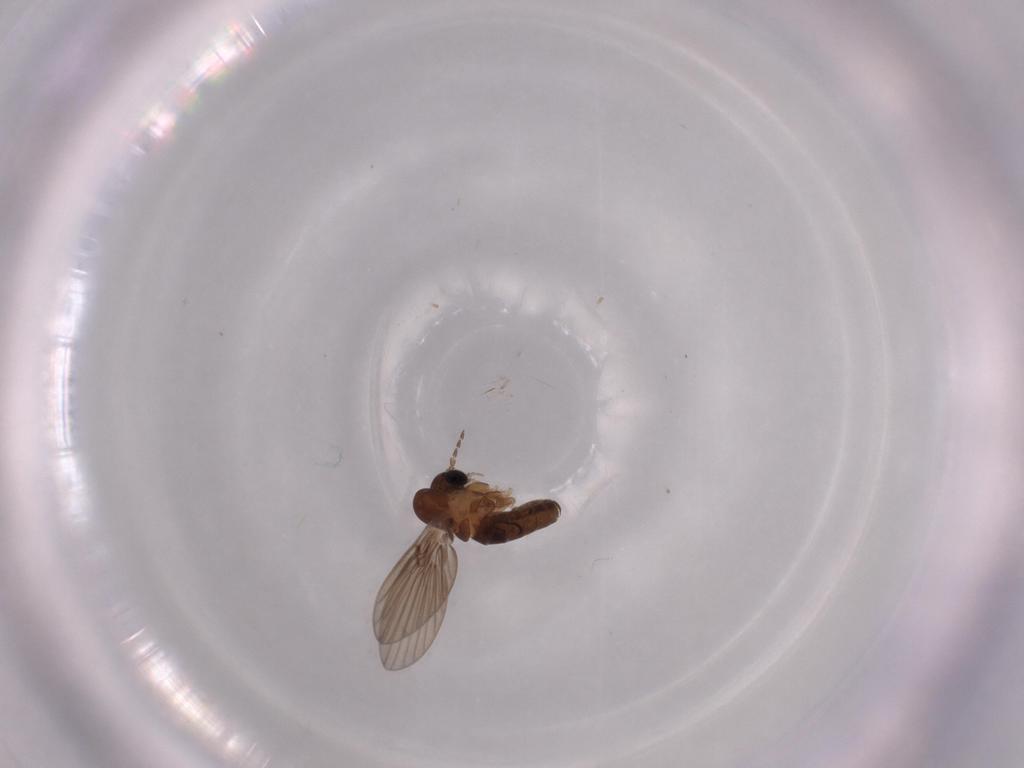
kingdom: Animalia
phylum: Arthropoda
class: Insecta
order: Diptera
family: Psychodidae
